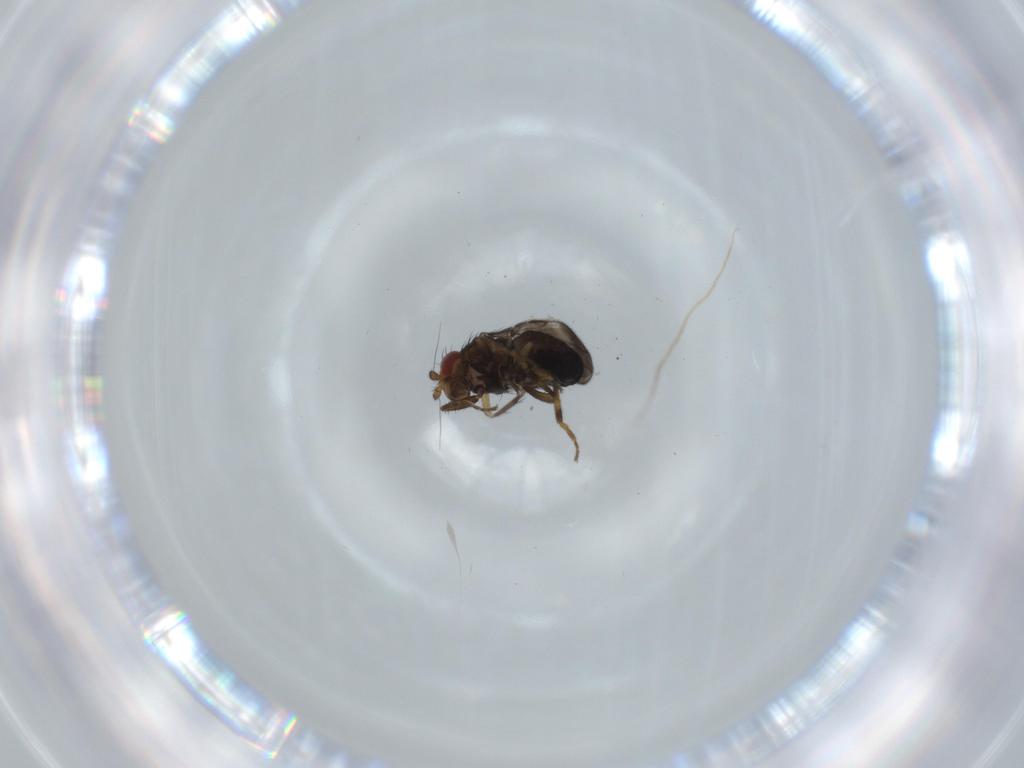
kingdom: Animalia
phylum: Arthropoda
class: Insecta
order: Diptera
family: Sphaeroceridae
